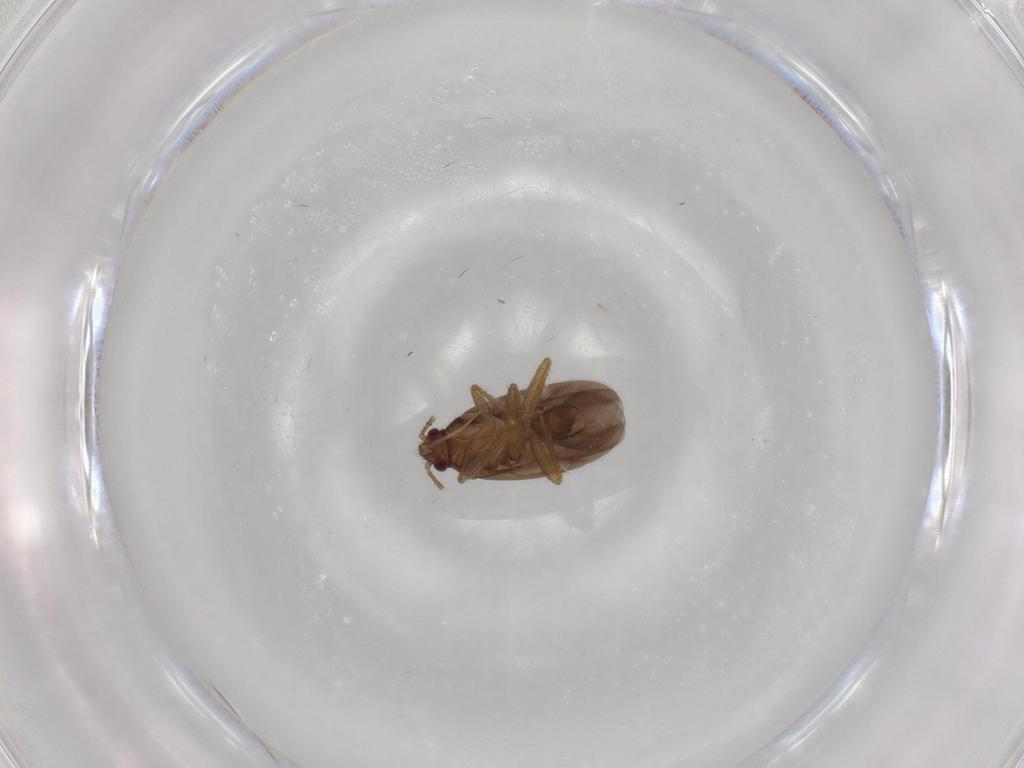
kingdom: Animalia
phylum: Arthropoda
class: Insecta
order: Hemiptera
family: Ceratocombidae
